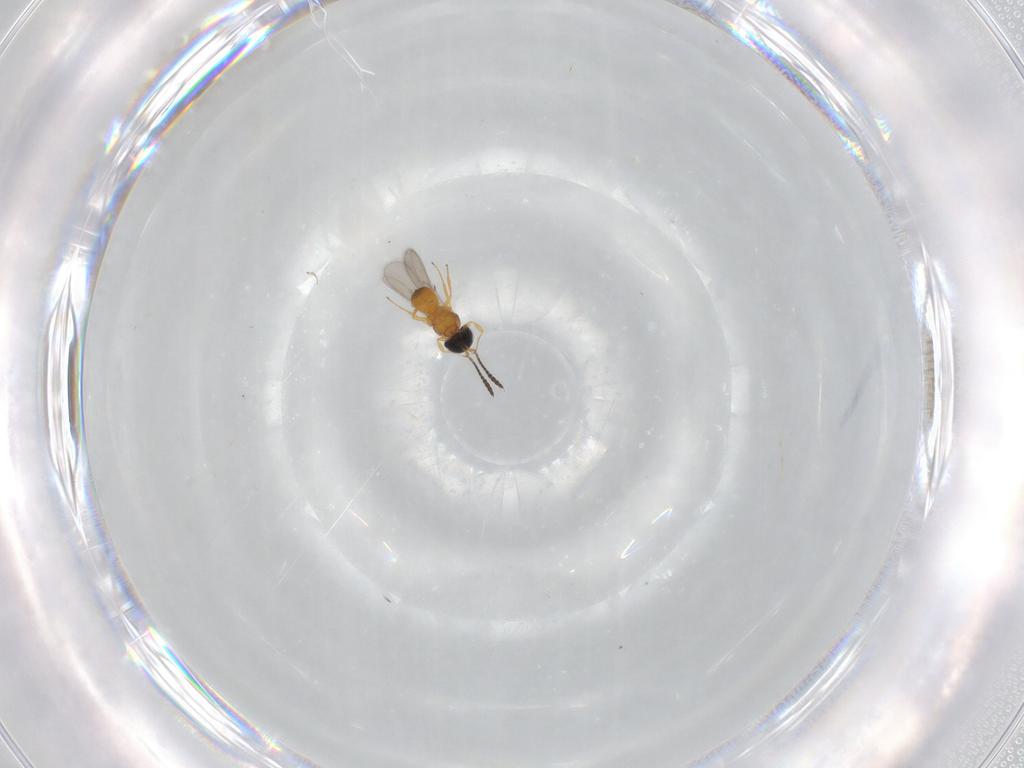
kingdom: Animalia
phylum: Arthropoda
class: Insecta
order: Hymenoptera
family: Scelionidae
